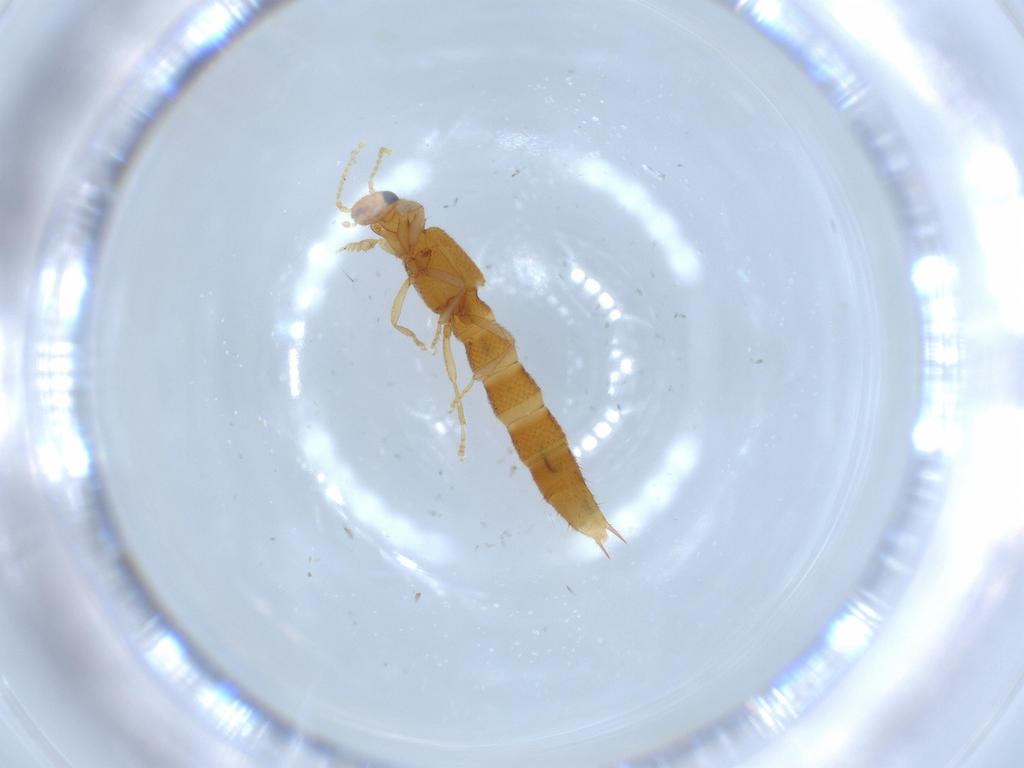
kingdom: Animalia
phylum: Arthropoda
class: Insecta
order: Coleoptera
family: Staphylinidae
